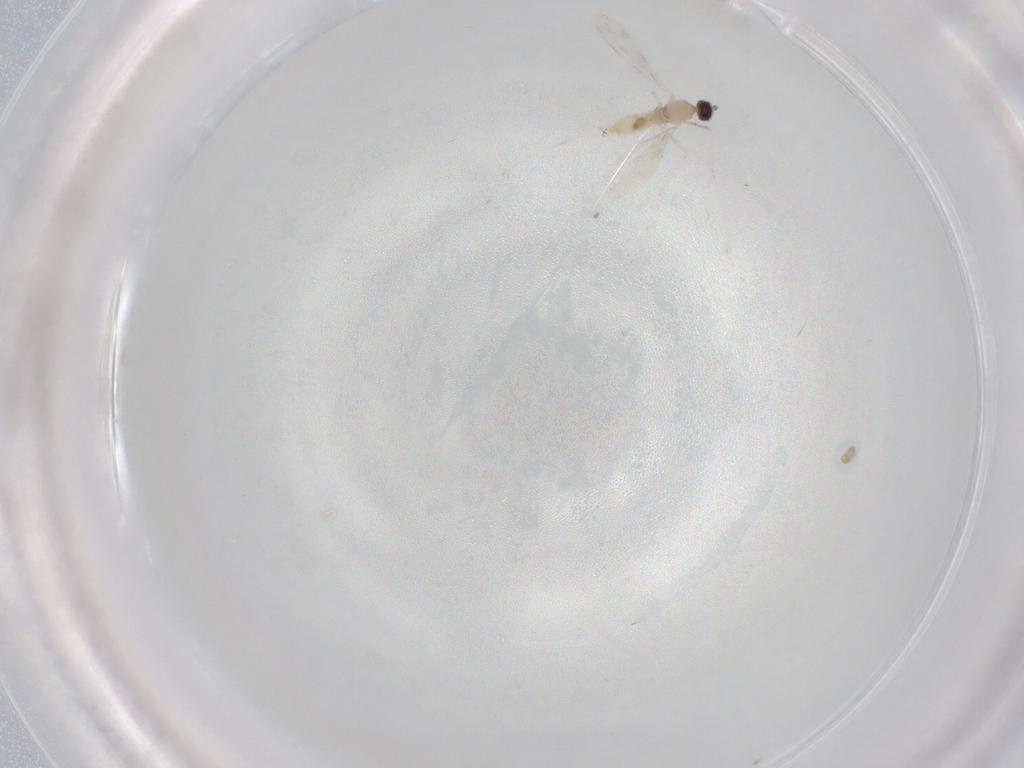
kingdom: Animalia
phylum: Arthropoda
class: Insecta
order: Diptera
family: Cecidomyiidae
